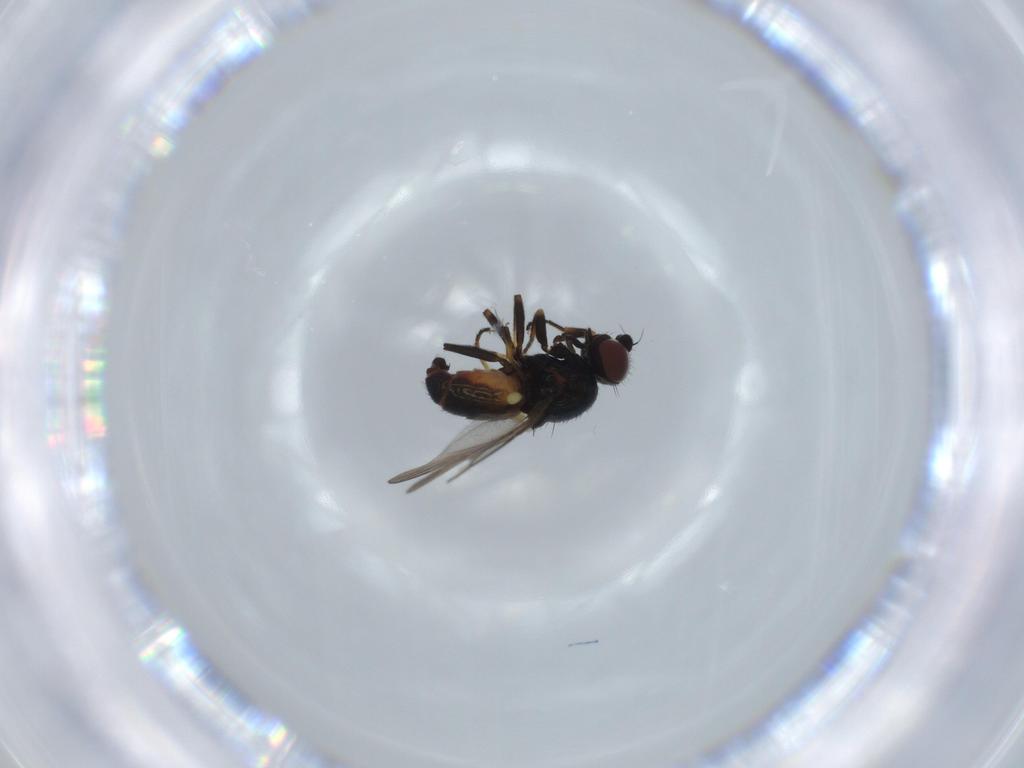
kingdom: Animalia
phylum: Arthropoda
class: Insecta
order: Diptera
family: Chloropidae
